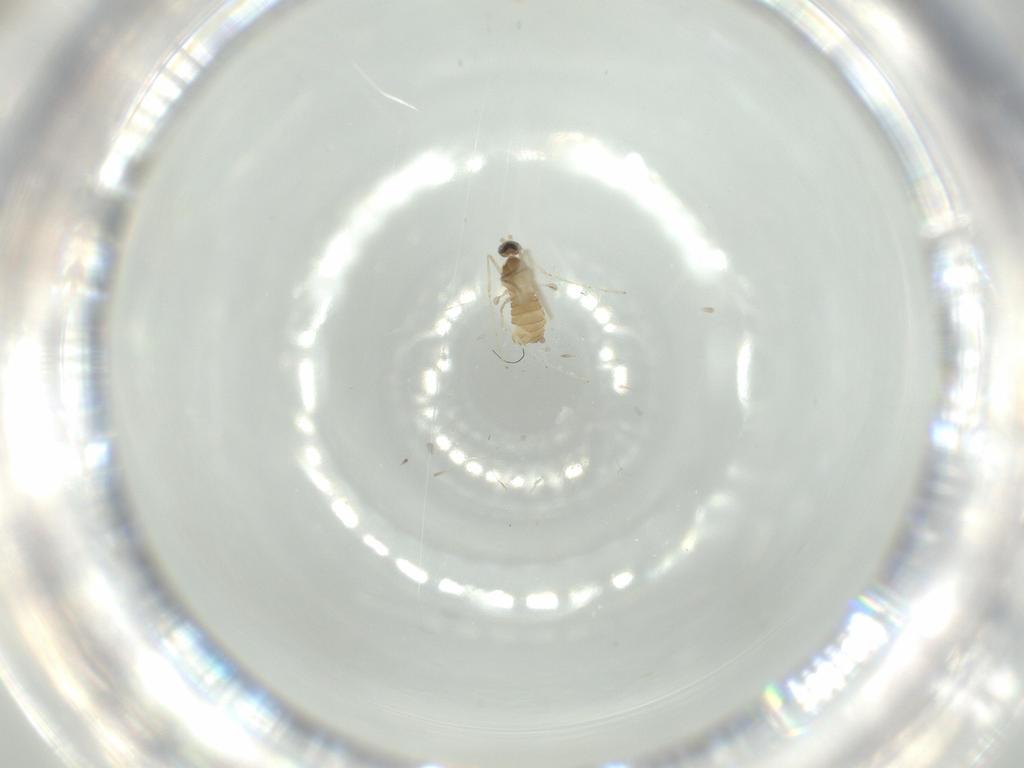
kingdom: Animalia
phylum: Arthropoda
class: Insecta
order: Diptera
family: Cecidomyiidae
